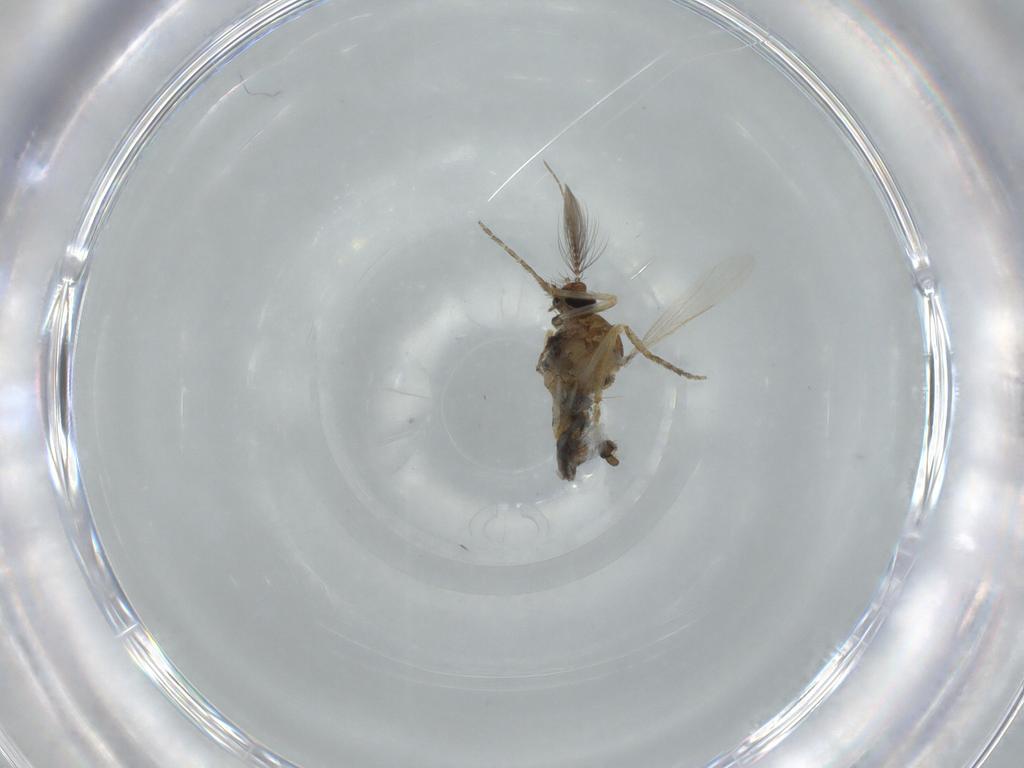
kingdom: Animalia
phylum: Arthropoda
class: Insecta
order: Diptera
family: Ceratopogonidae
